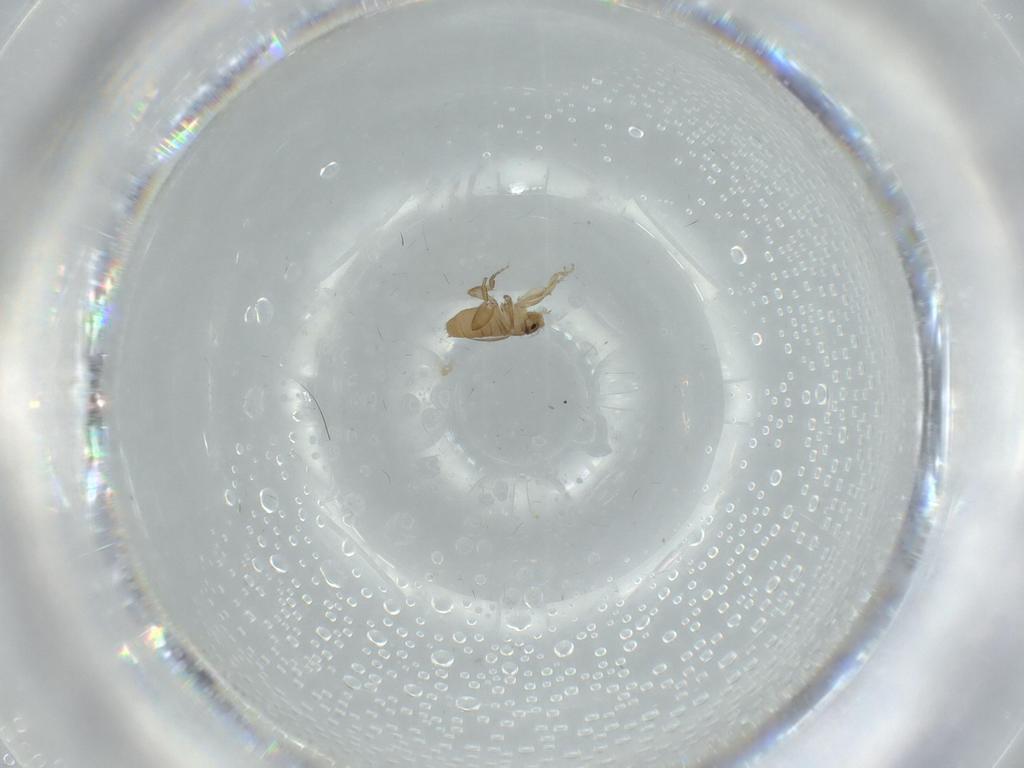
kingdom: Animalia
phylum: Arthropoda
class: Insecta
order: Diptera
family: Phoridae
